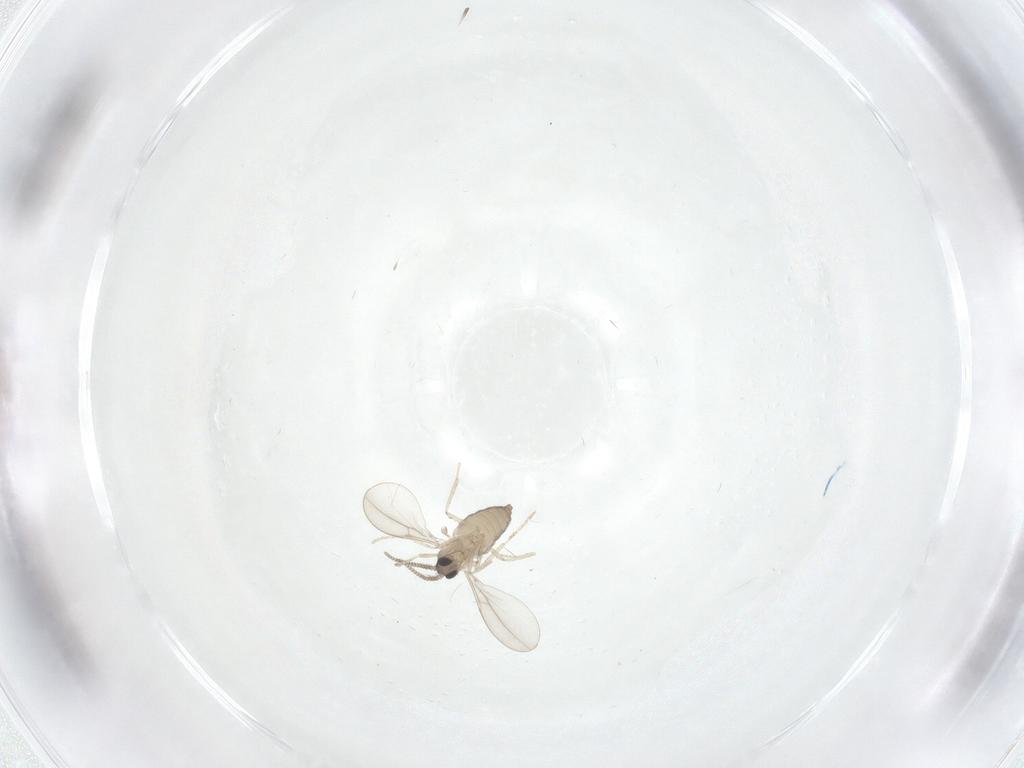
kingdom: Animalia
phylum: Arthropoda
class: Insecta
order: Diptera
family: Cecidomyiidae
